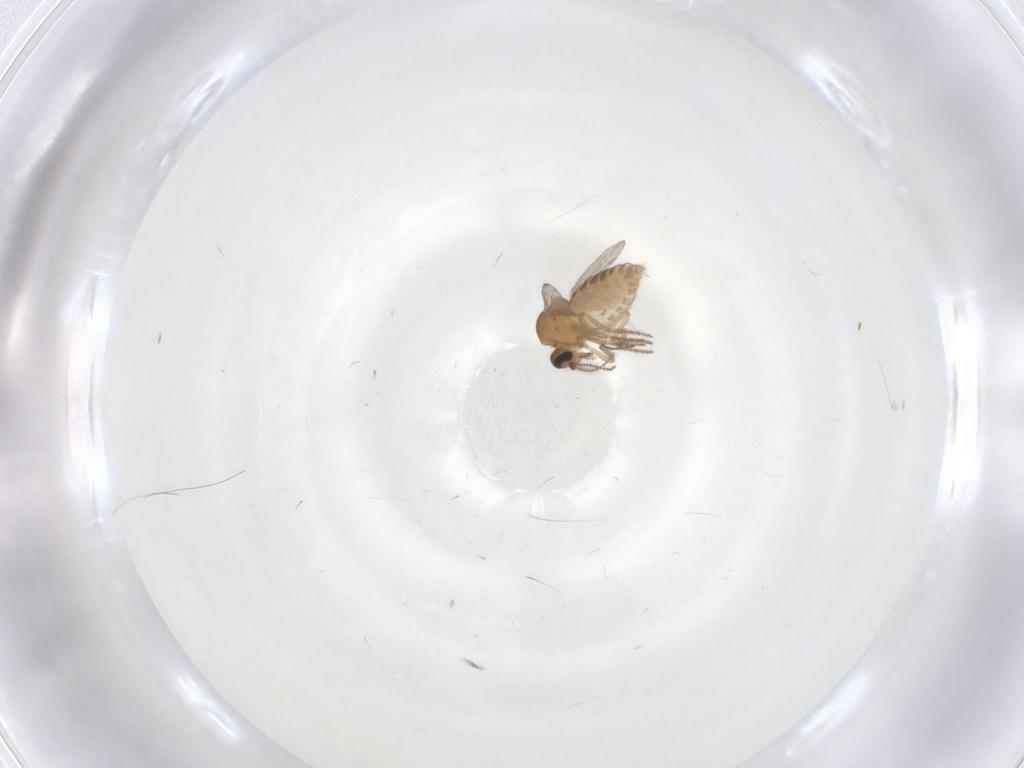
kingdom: Animalia
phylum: Arthropoda
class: Insecta
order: Diptera
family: Ceratopogonidae
